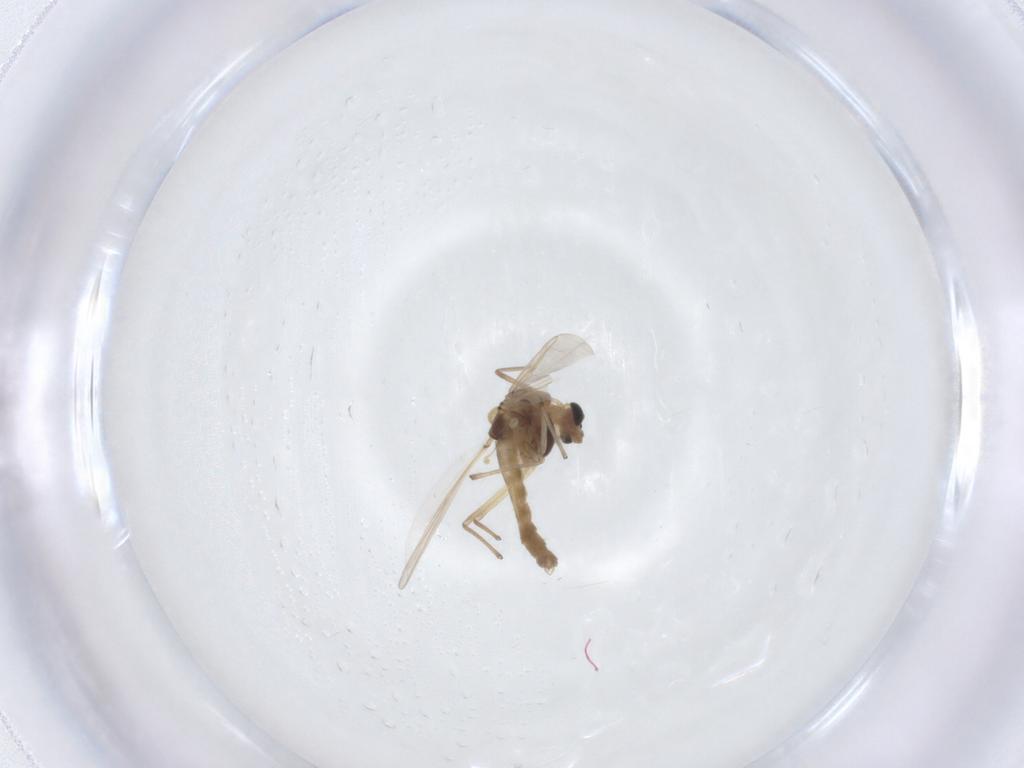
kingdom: Animalia
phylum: Arthropoda
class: Insecta
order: Diptera
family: Chironomidae
